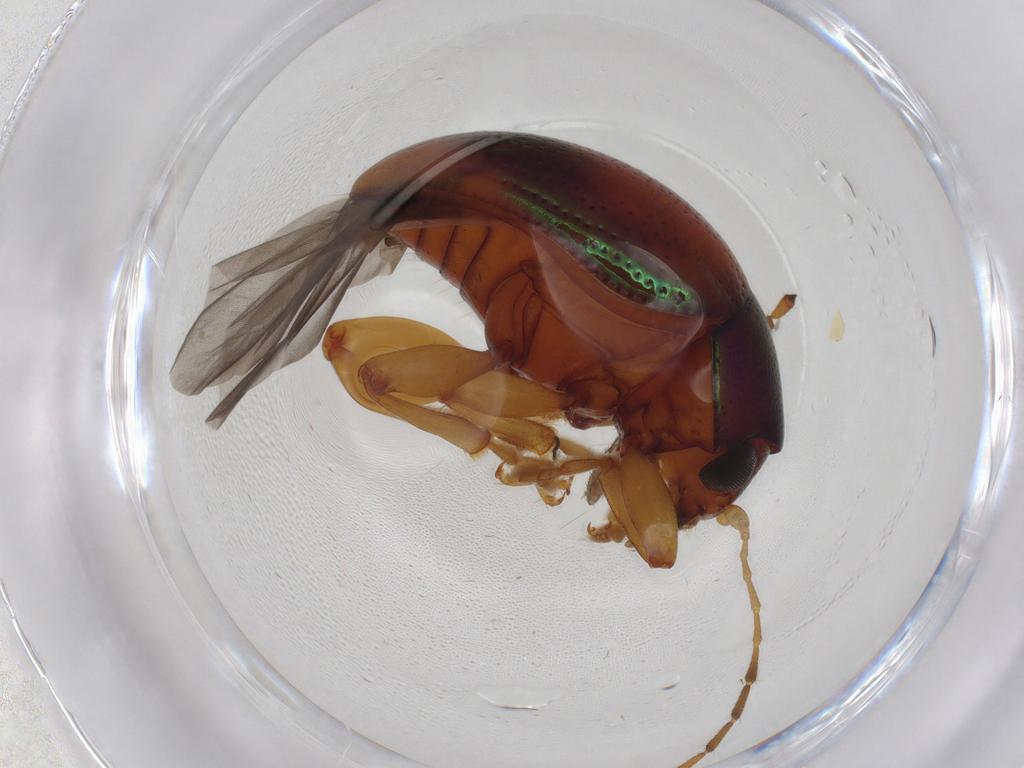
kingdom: Animalia
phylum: Arthropoda
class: Insecta
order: Coleoptera
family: Chrysomelidae
